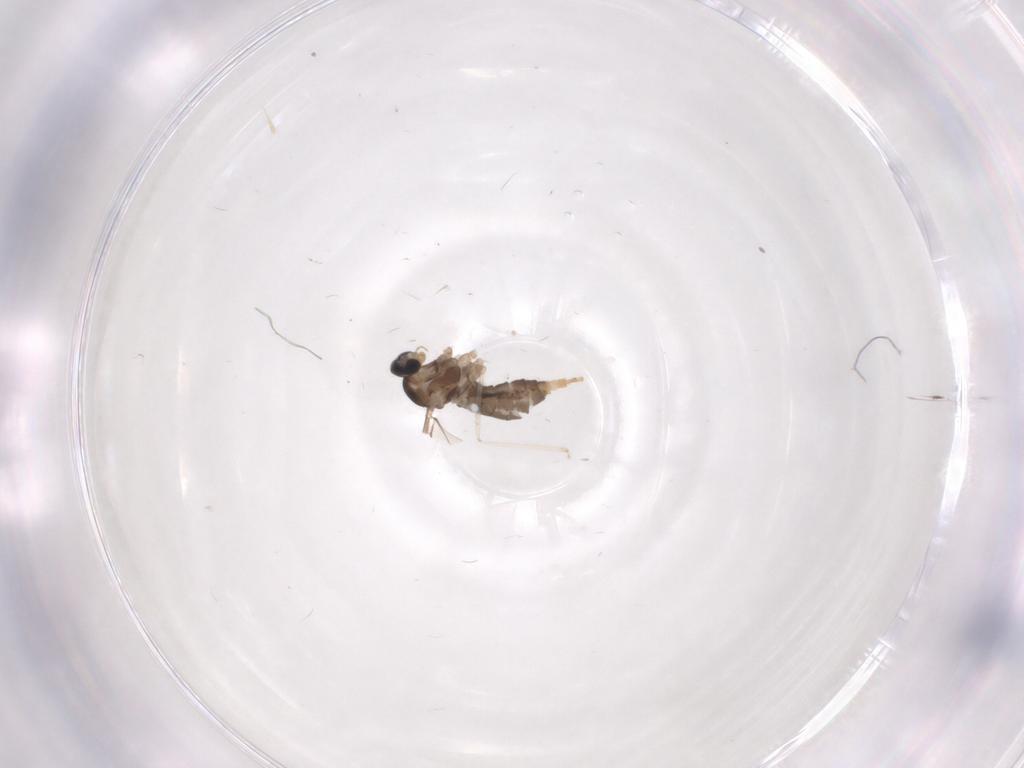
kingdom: Animalia
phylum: Arthropoda
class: Insecta
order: Diptera
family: Cecidomyiidae
